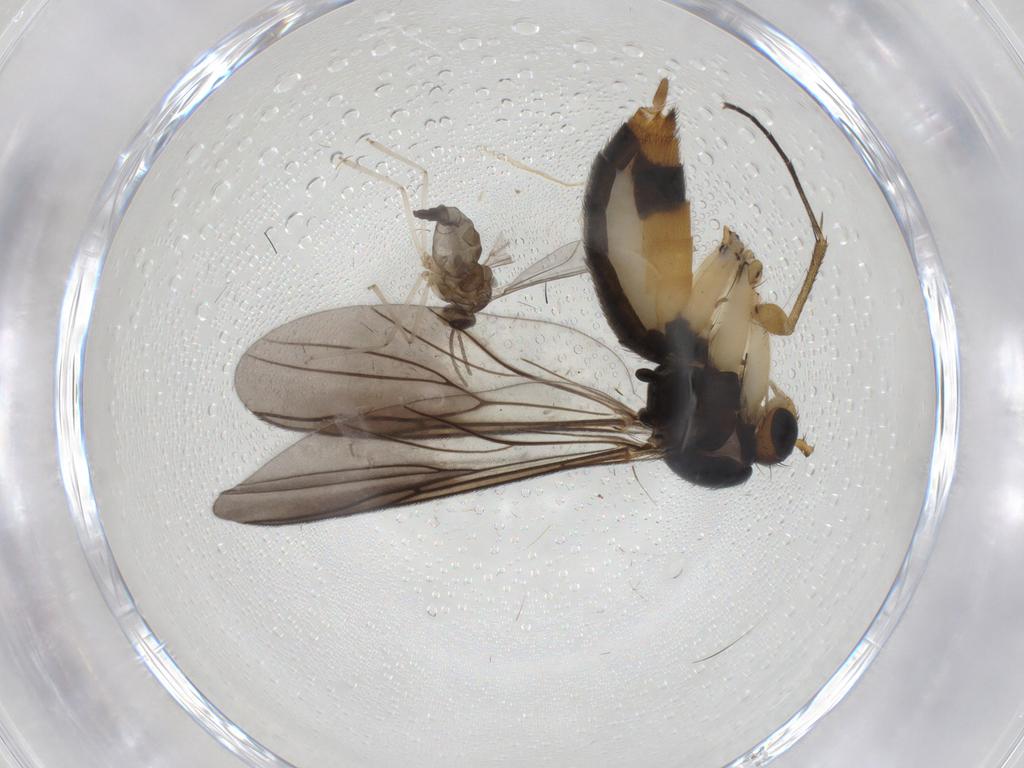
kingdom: Animalia
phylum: Arthropoda
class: Insecta
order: Diptera
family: Mycetophilidae
